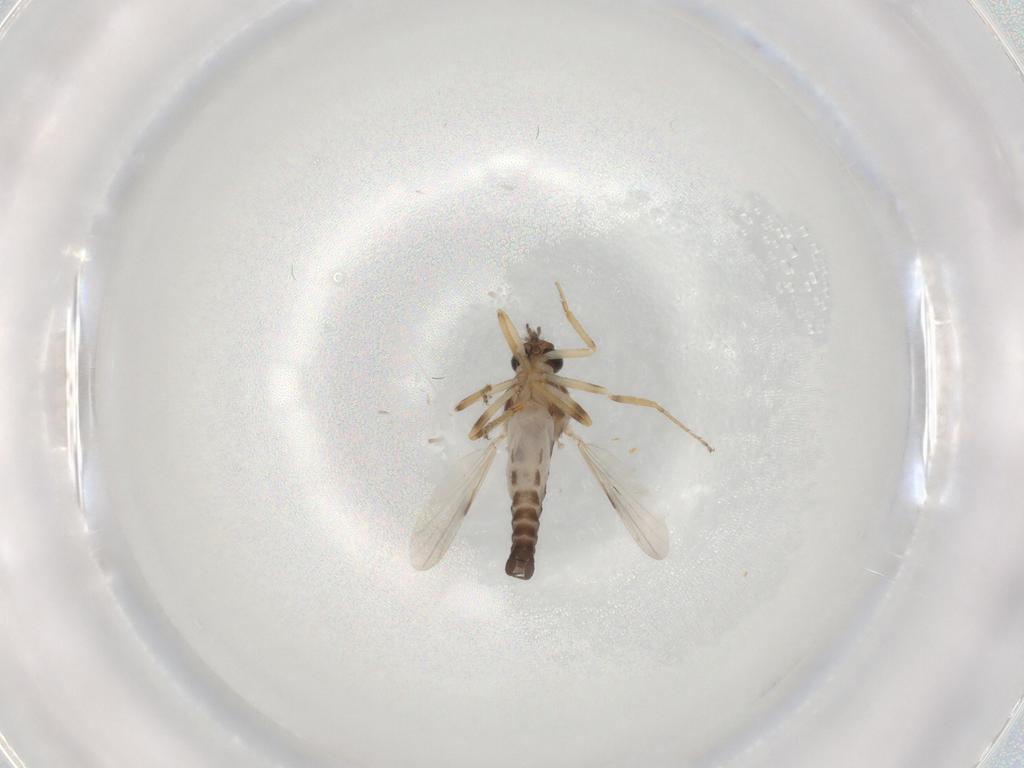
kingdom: Animalia
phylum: Arthropoda
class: Insecta
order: Diptera
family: Ceratopogonidae
